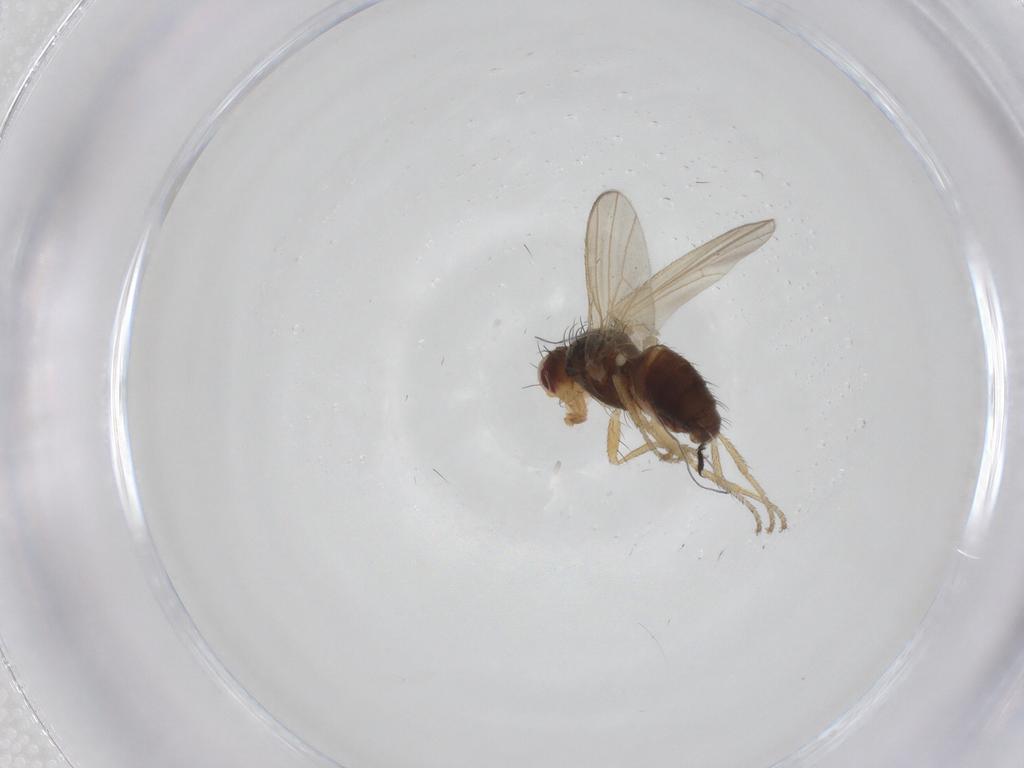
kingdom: Animalia
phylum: Arthropoda
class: Insecta
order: Diptera
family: Heleomyzidae
